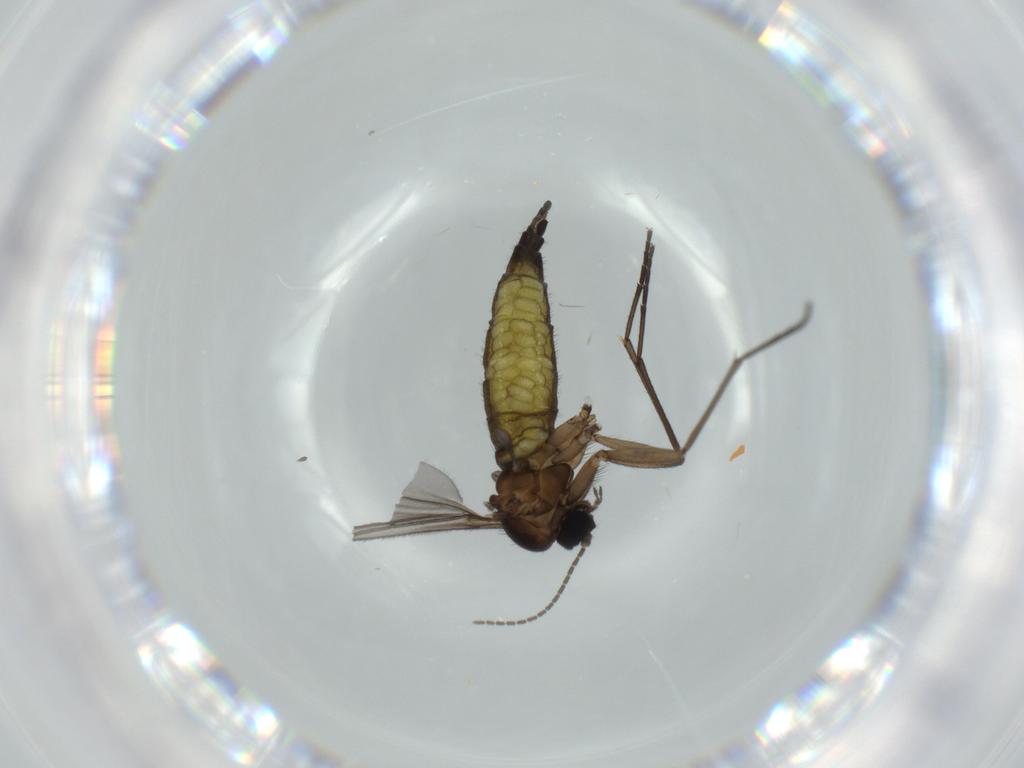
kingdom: Animalia
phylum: Arthropoda
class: Insecta
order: Diptera
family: Sciaridae
